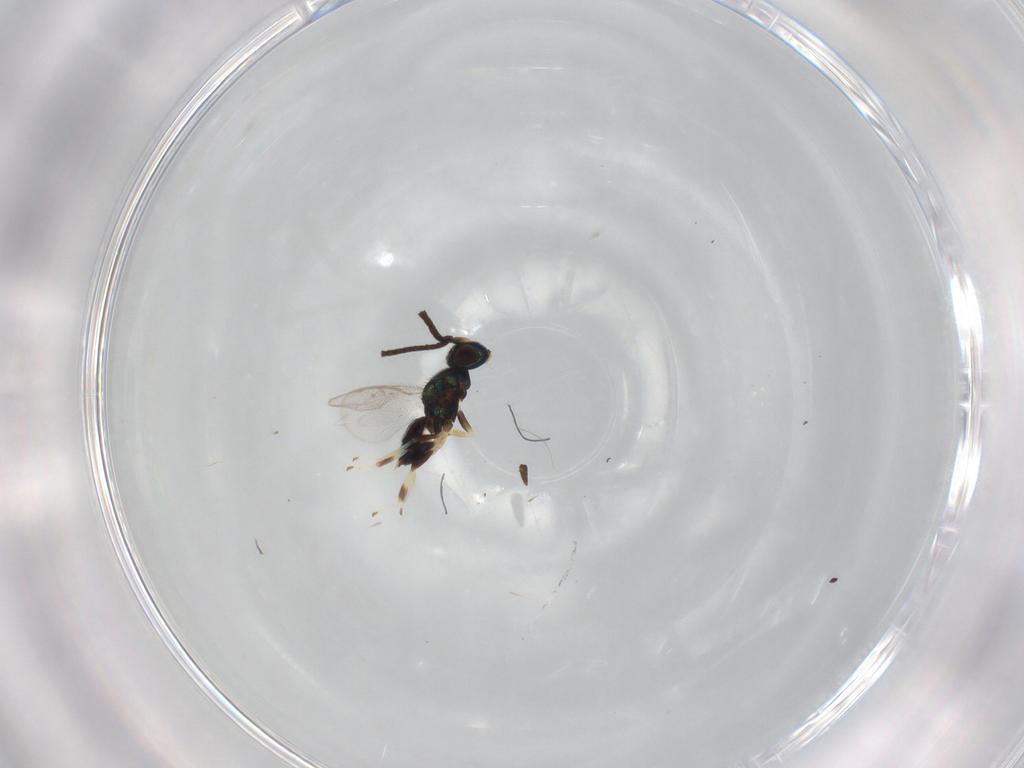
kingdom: Animalia
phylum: Arthropoda
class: Insecta
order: Hymenoptera
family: Eupelmidae
